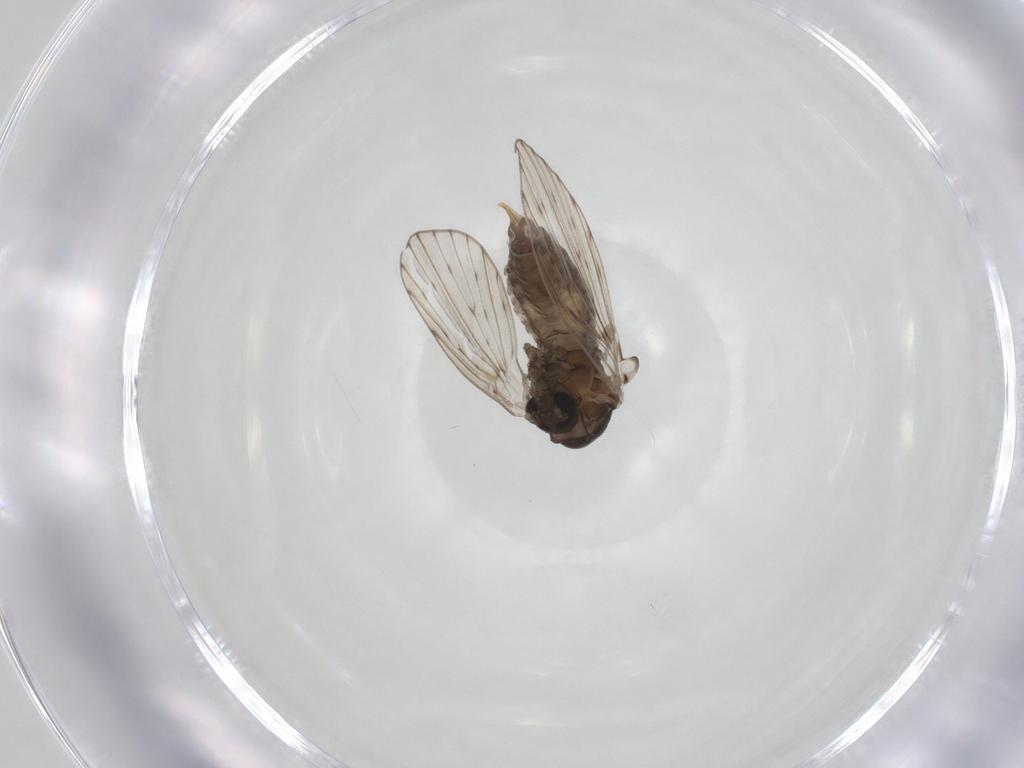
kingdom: Animalia
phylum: Arthropoda
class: Insecta
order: Diptera
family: Psychodidae
